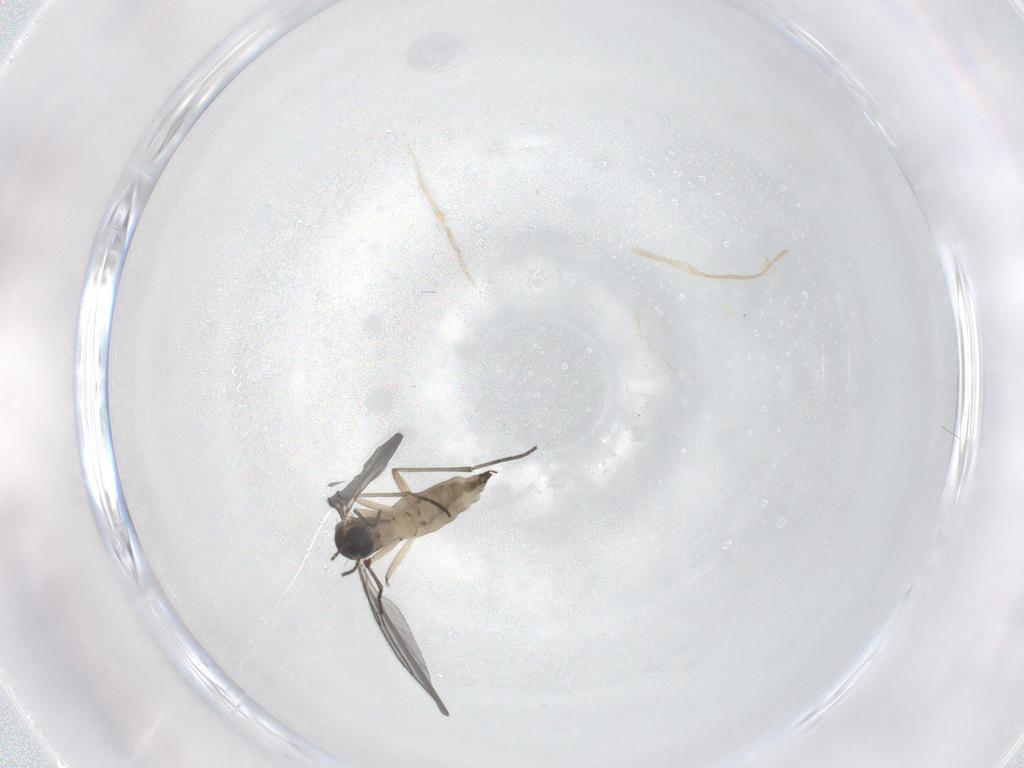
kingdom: Animalia
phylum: Arthropoda
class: Insecta
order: Diptera
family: Sciaridae
